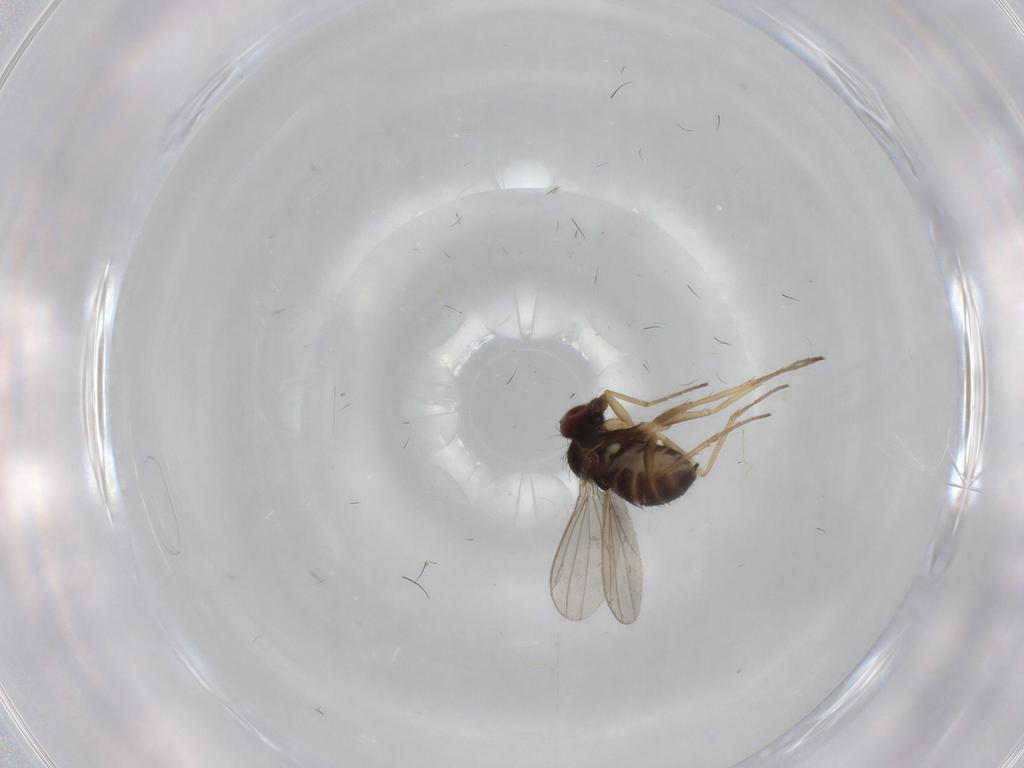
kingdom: Animalia
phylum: Arthropoda
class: Insecta
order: Diptera
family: Dolichopodidae
